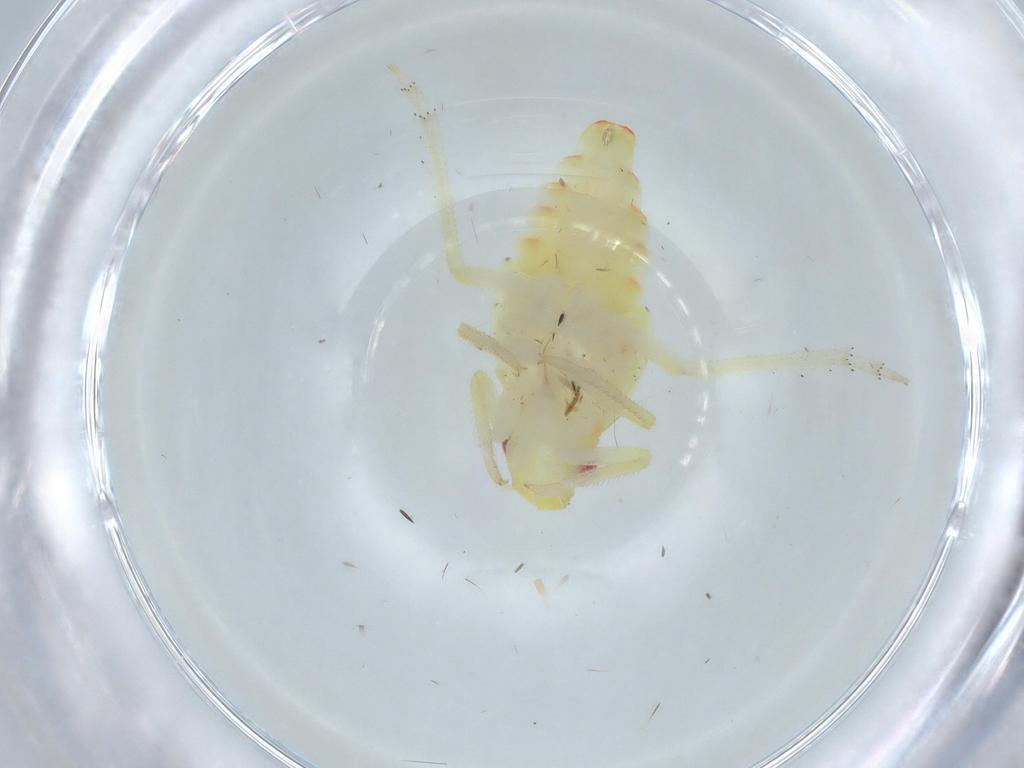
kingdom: Animalia
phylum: Arthropoda
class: Insecta
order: Hemiptera
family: Tropiduchidae
